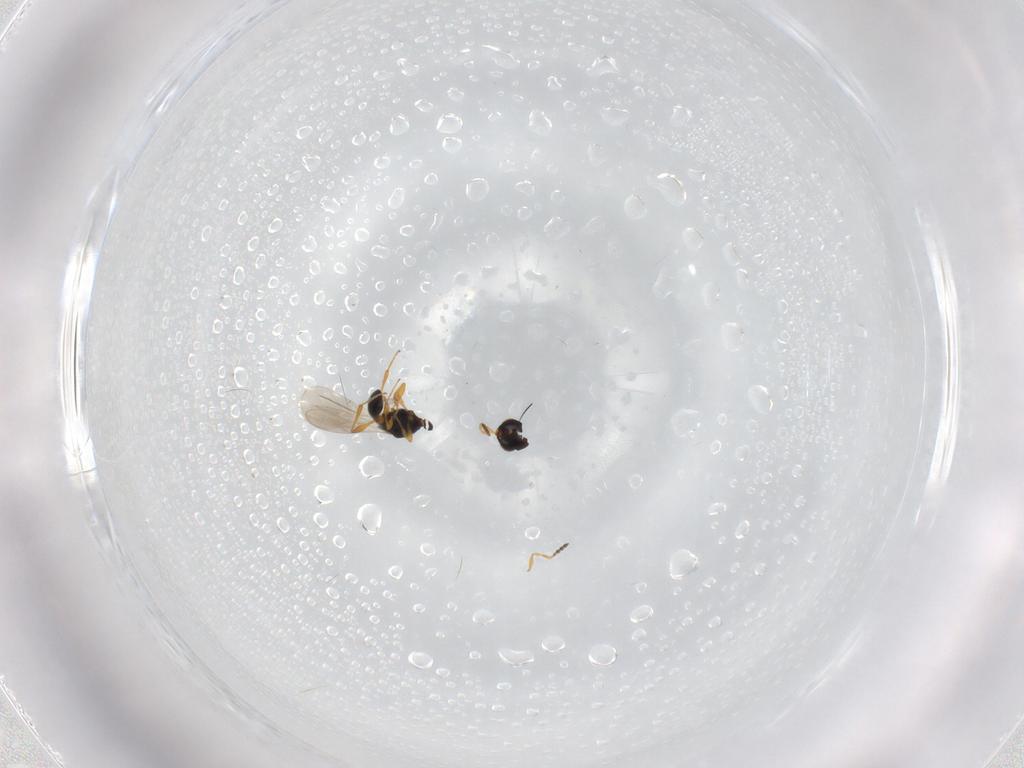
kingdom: Animalia
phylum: Arthropoda
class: Insecta
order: Hymenoptera
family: Platygastridae
